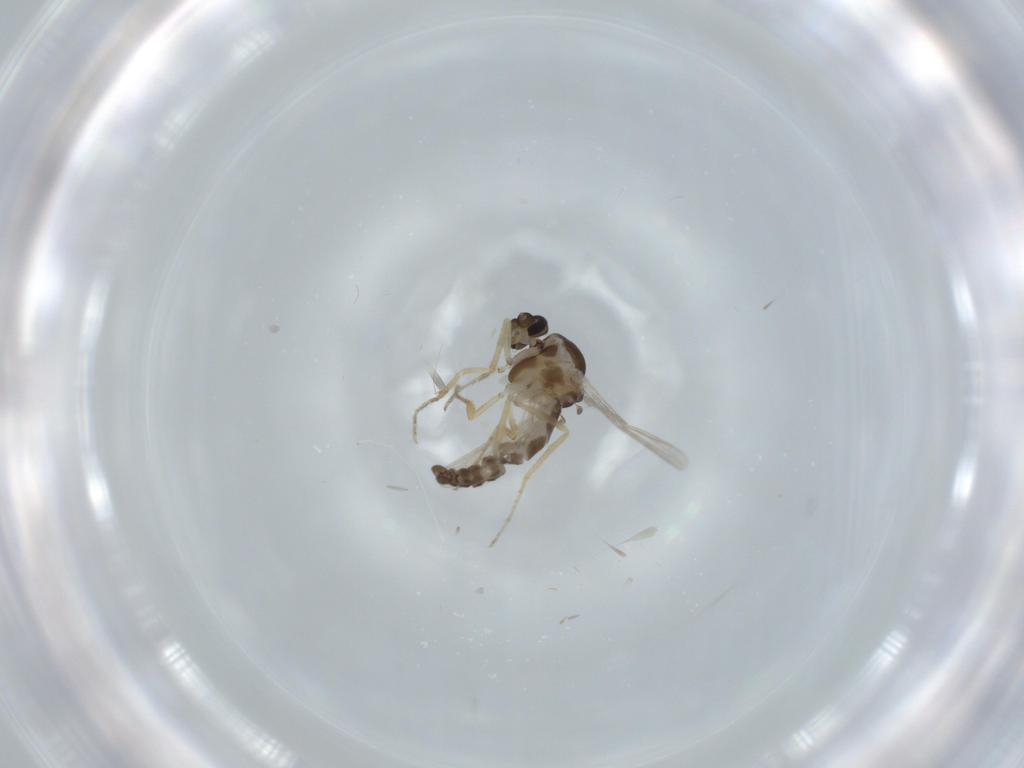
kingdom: Animalia
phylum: Arthropoda
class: Insecta
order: Diptera
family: Ceratopogonidae
